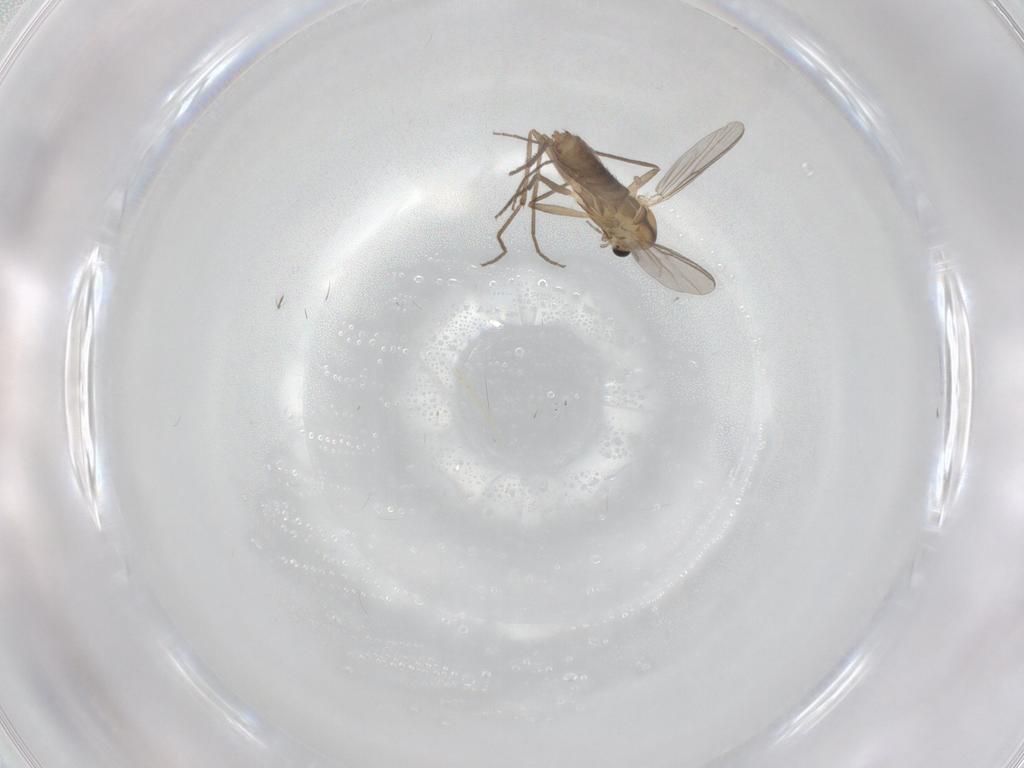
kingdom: Animalia
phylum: Arthropoda
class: Insecta
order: Diptera
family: Chironomidae
